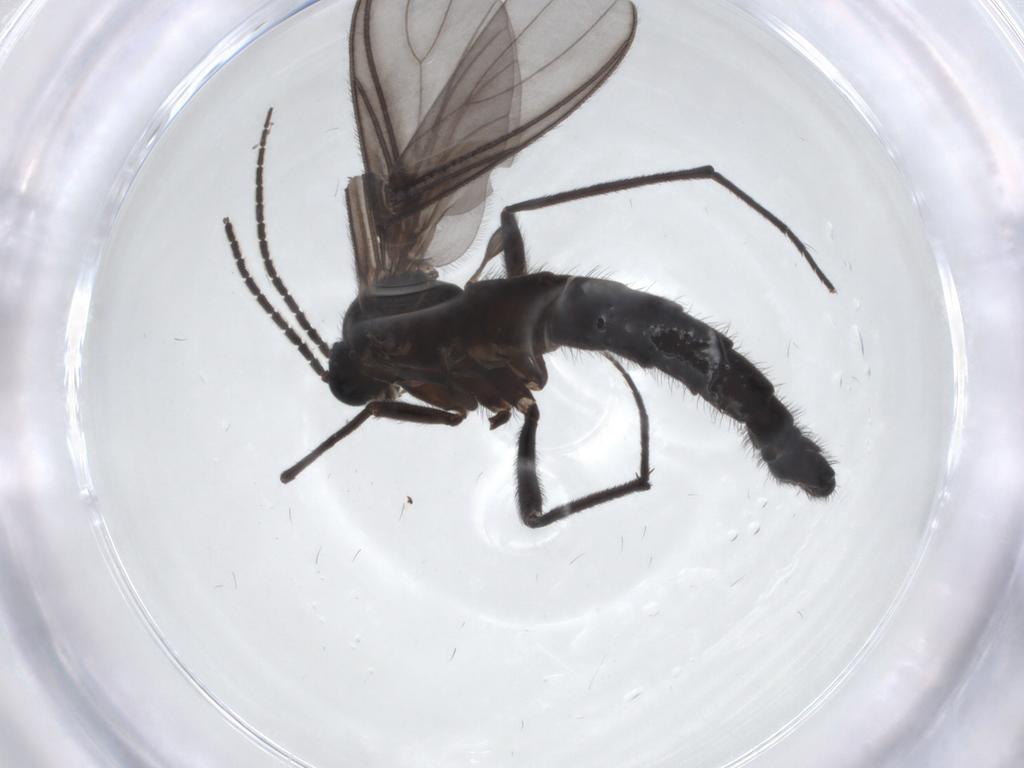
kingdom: Animalia
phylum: Arthropoda
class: Insecta
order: Diptera
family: Cecidomyiidae
